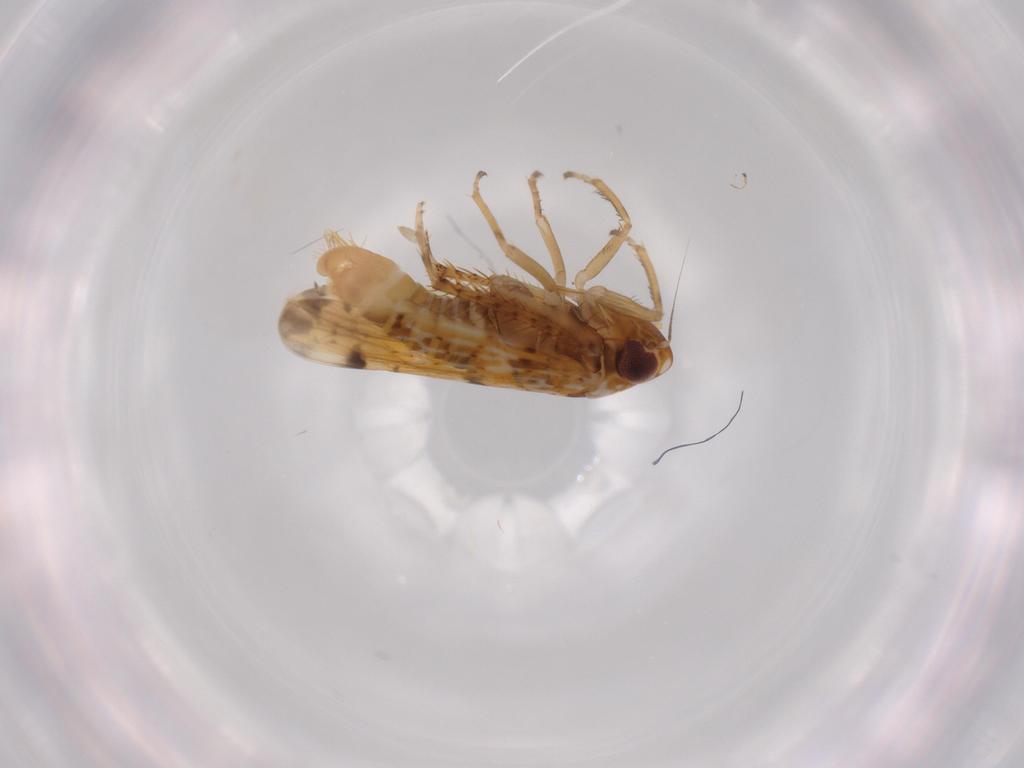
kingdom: Animalia
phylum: Arthropoda
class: Insecta
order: Hemiptera
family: Cicadellidae
